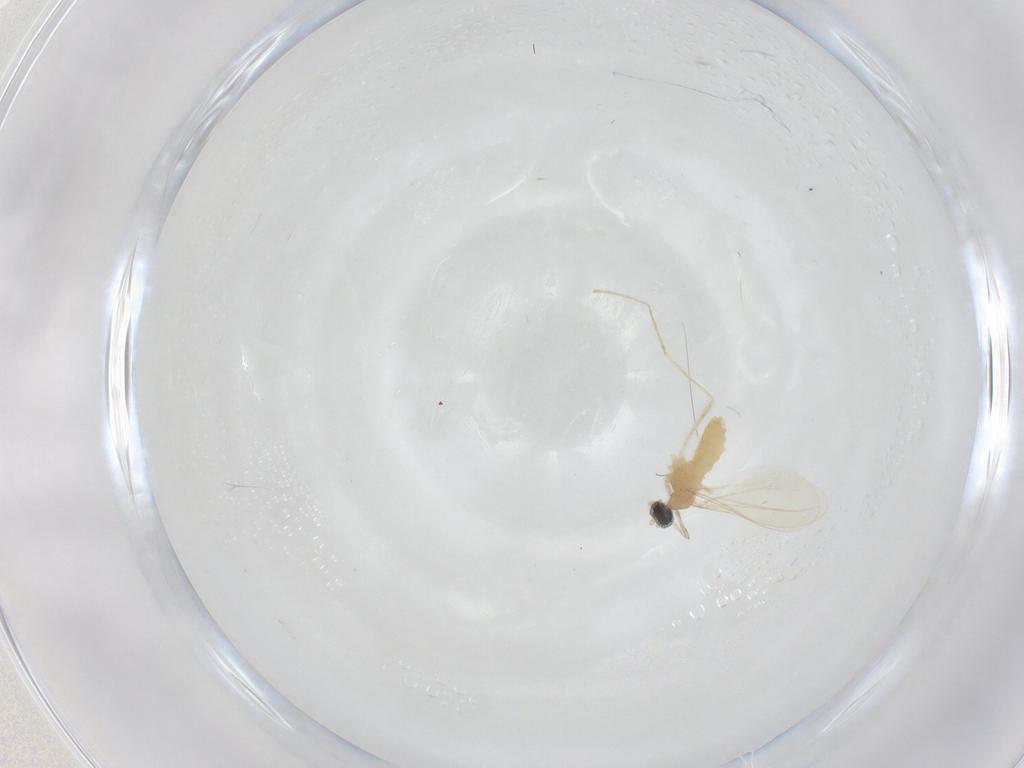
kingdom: Animalia
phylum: Arthropoda
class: Insecta
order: Diptera
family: Cecidomyiidae
